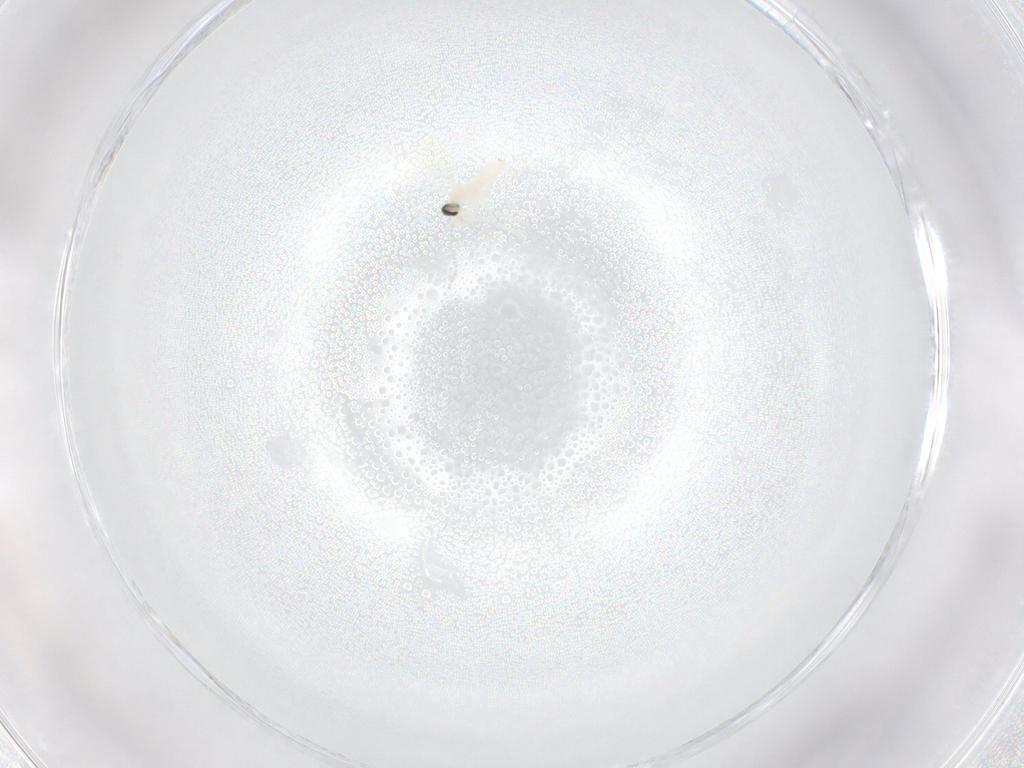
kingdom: Animalia
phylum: Arthropoda
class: Insecta
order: Diptera
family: Cecidomyiidae
